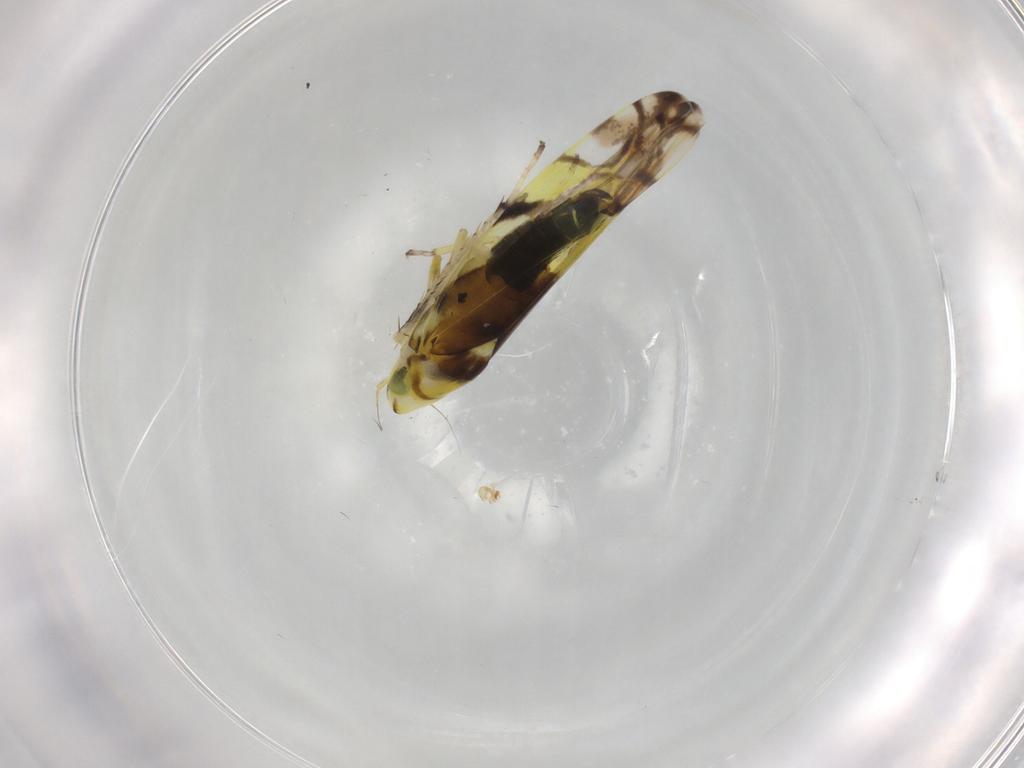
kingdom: Animalia
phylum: Arthropoda
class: Insecta
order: Hemiptera
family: Cicadellidae
